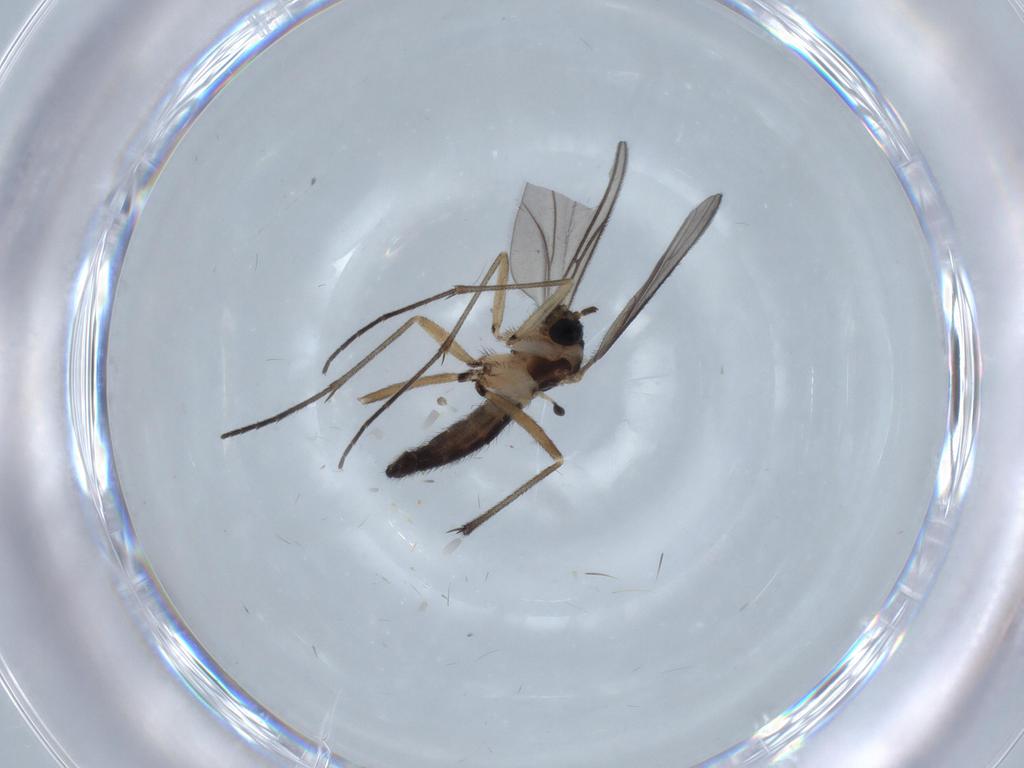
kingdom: Animalia
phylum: Arthropoda
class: Insecta
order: Diptera
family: Sciaridae
